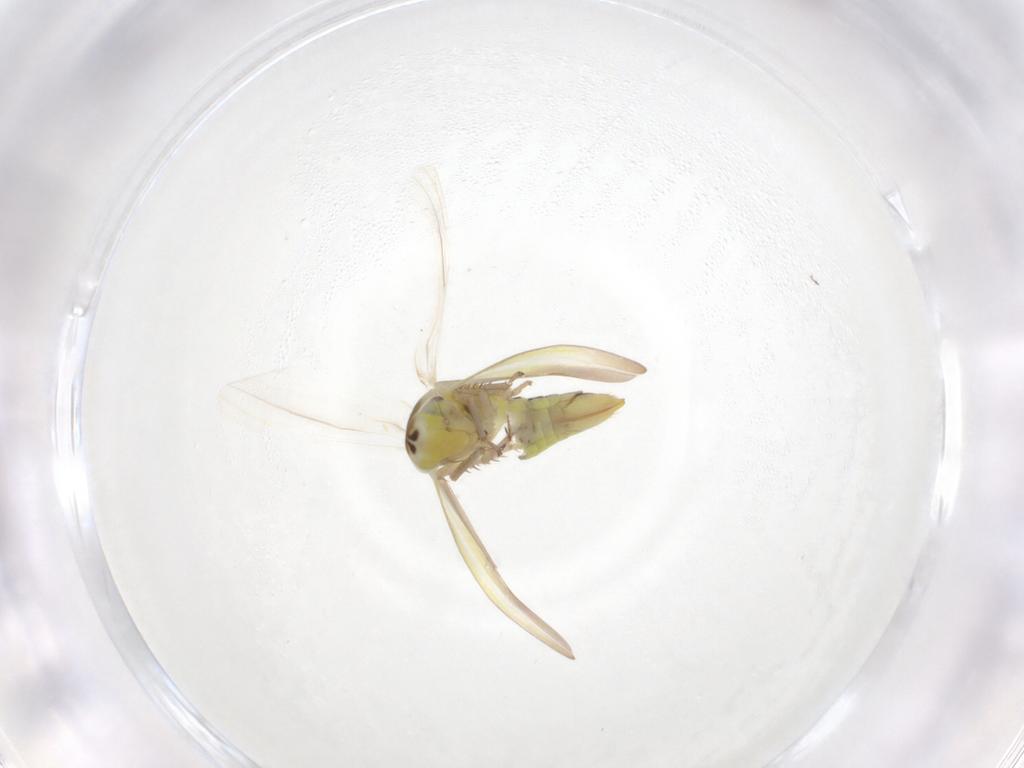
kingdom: Animalia
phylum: Arthropoda
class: Insecta
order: Hemiptera
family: Cicadellidae
